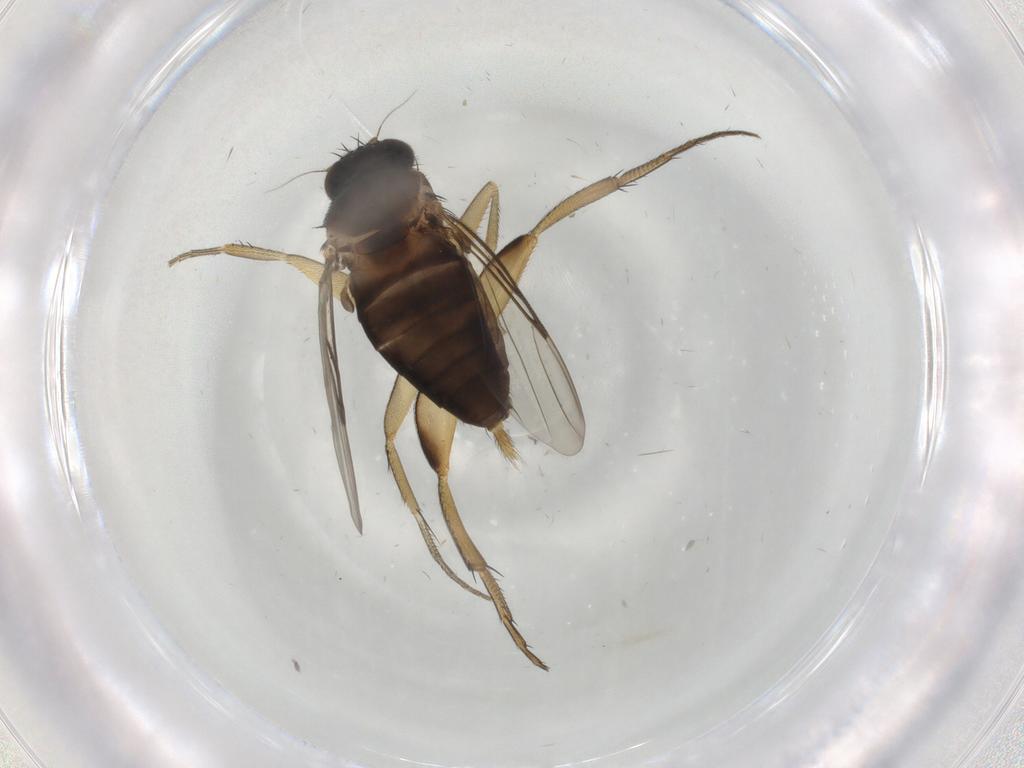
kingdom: Animalia
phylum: Arthropoda
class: Insecta
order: Diptera
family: Phoridae
